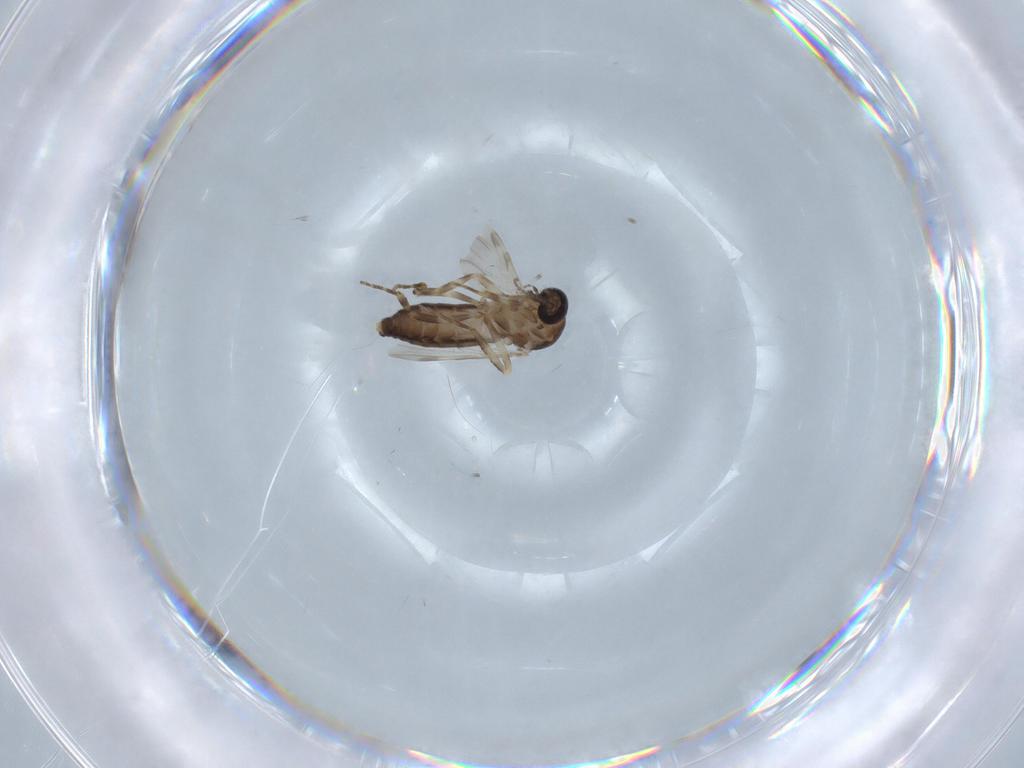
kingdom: Animalia
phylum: Arthropoda
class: Insecta
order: Diptera
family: Ceratopogonidae
